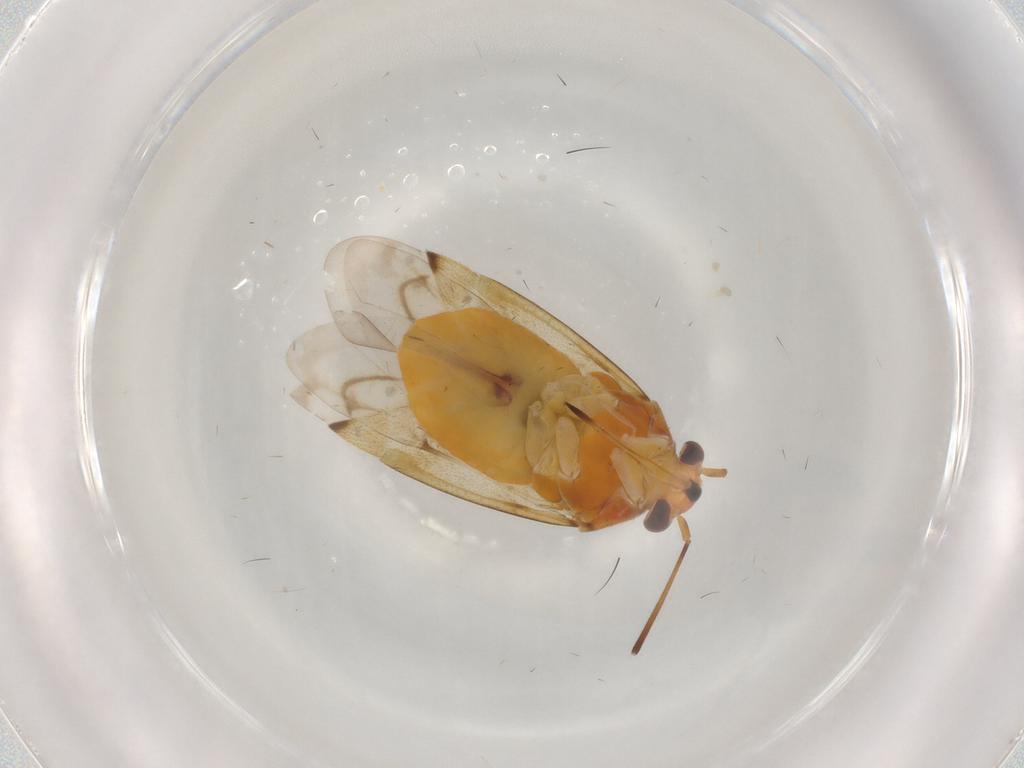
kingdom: Animalia
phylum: Arthropoda
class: Insecta
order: Hemiptera
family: Miridae
